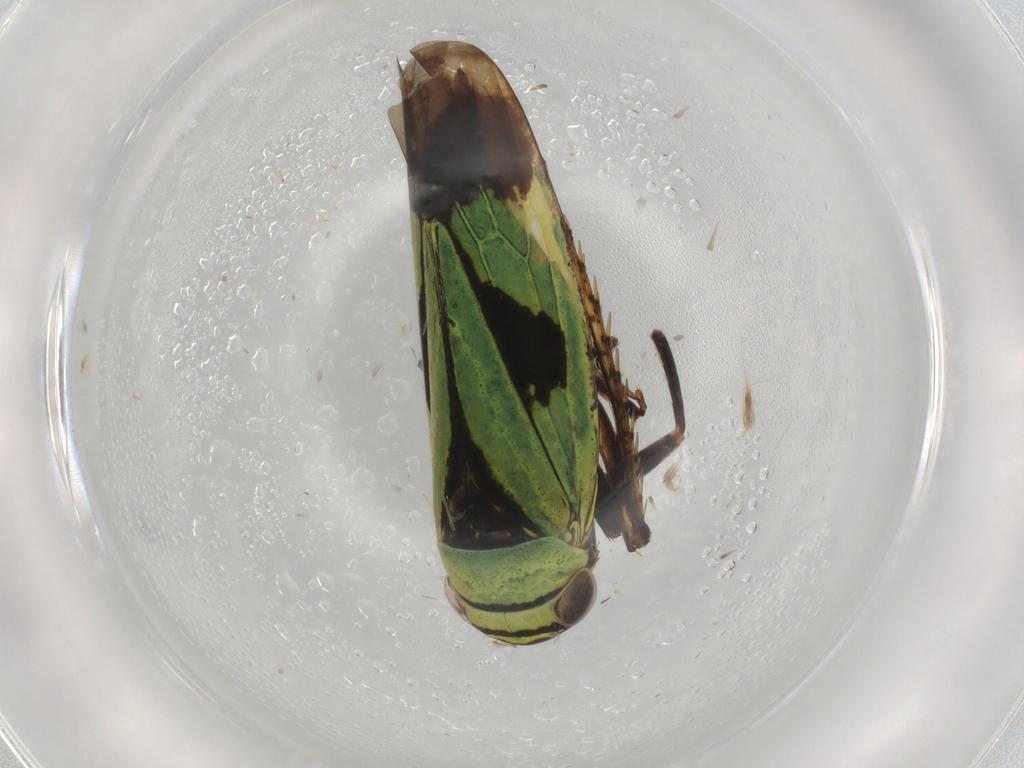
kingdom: Animalia
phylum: Arthropoda
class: Insecta
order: Hemiptera
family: Cicadellidae
